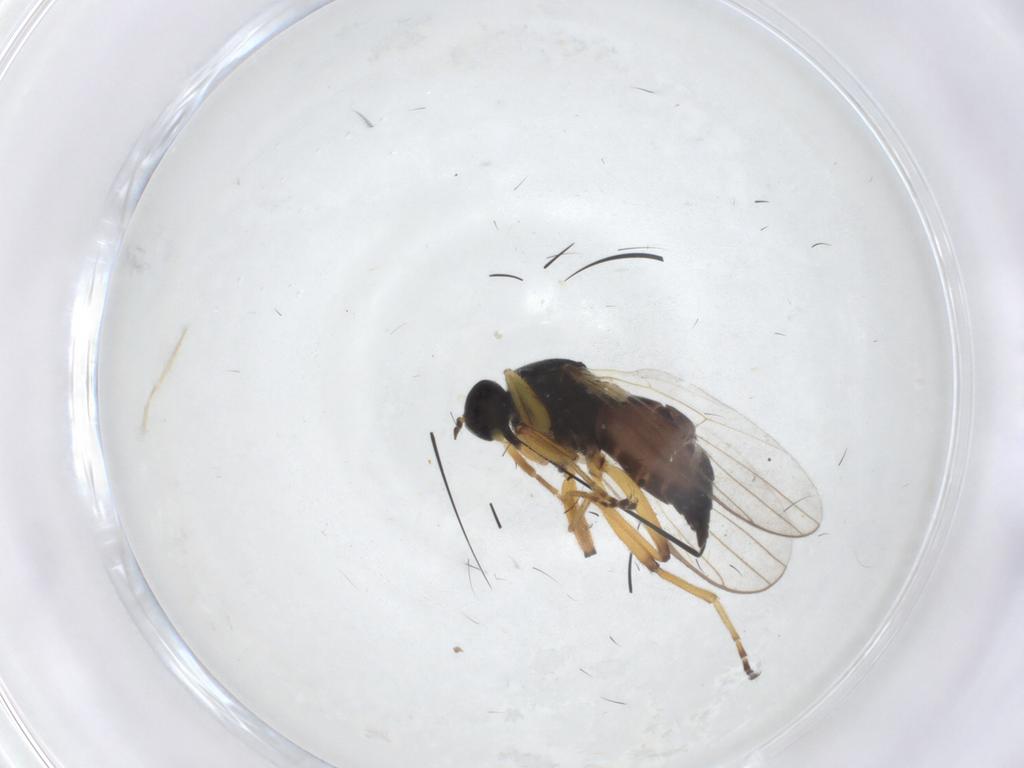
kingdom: Animalia
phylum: Arthropoda
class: Insecta
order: Diptera
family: Hybotidae
